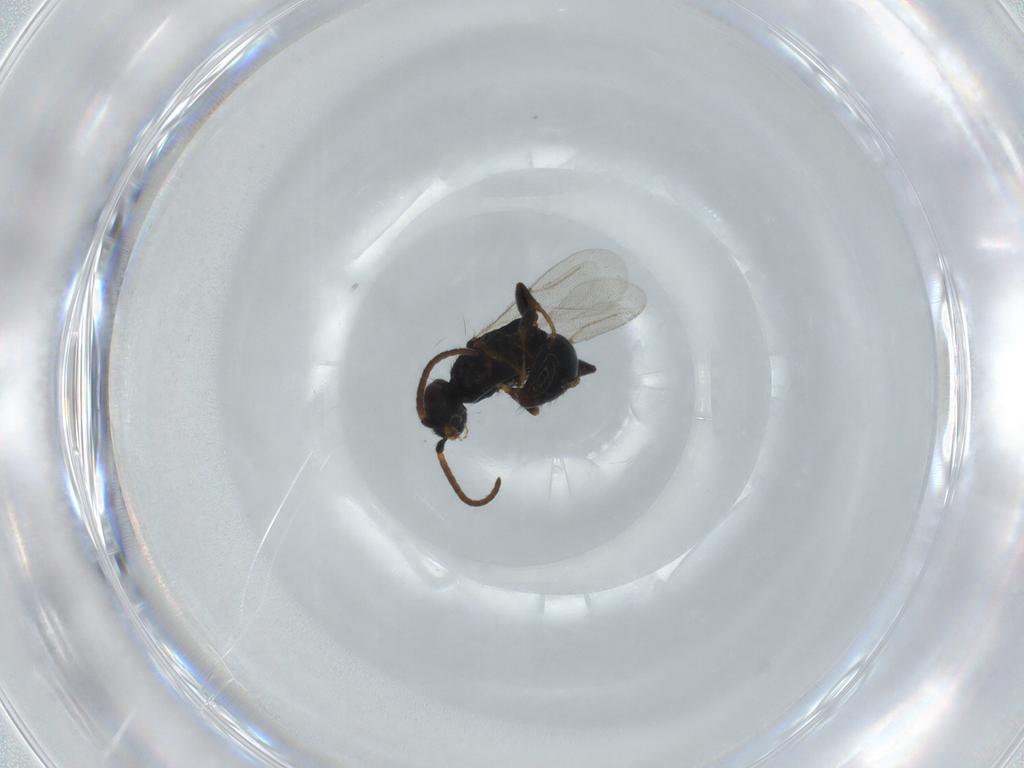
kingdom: Animalia
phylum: Arthropoda
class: Insecta
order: Hymenoptera
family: Bethylidae
